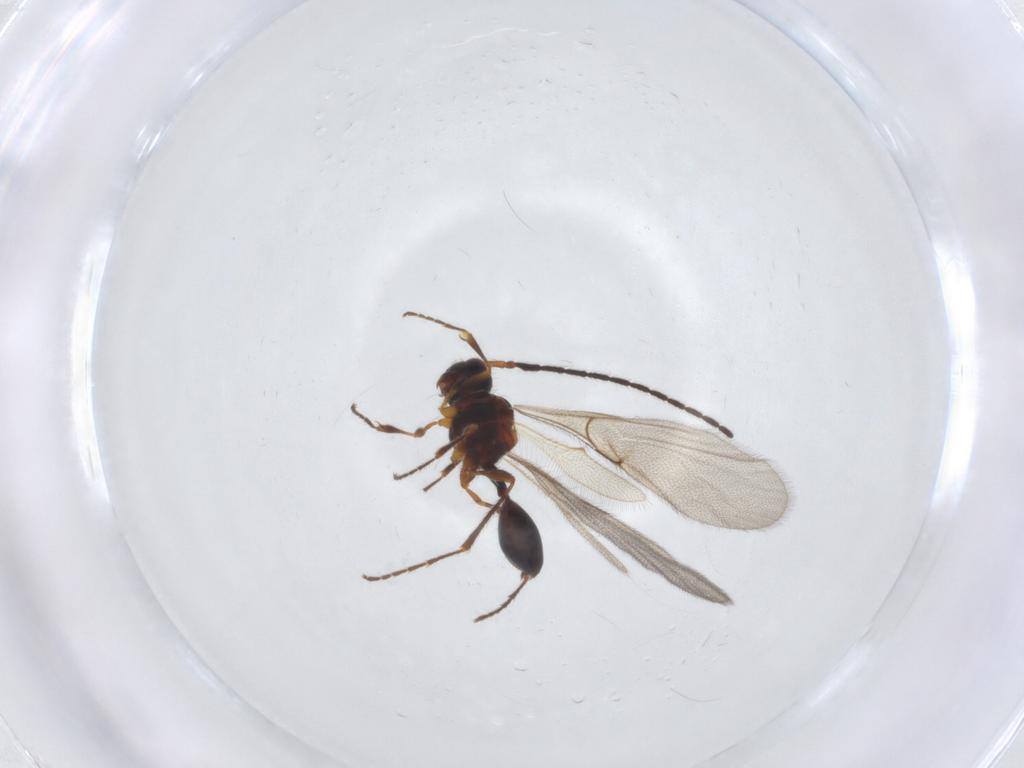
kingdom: Animalia
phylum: Arthropoda
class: Insecta
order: Hymenoptera
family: Diapriidae
